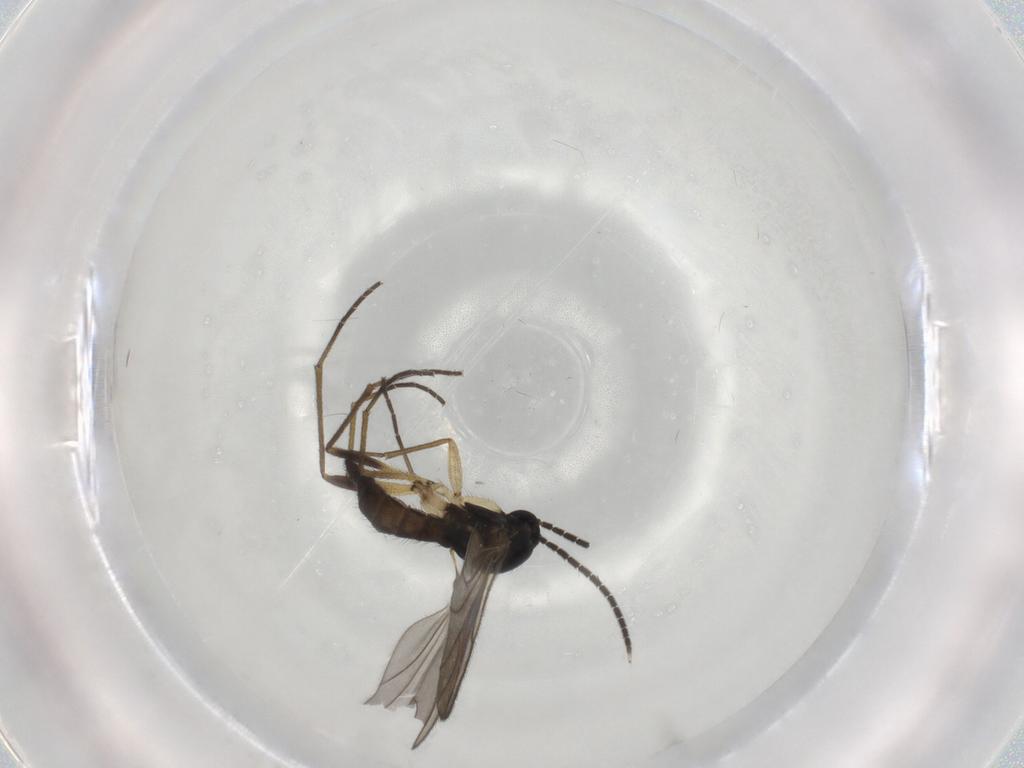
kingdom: Animalia
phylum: Arthropoda
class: Insecta
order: Diptera
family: Sciaridae
